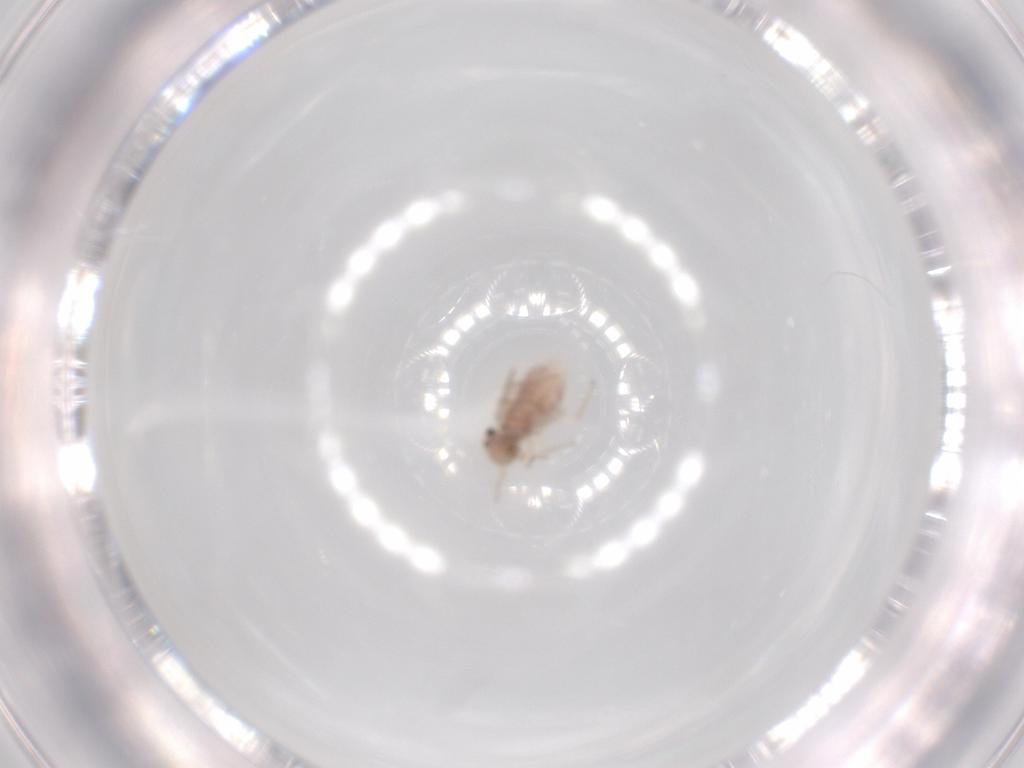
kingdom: Animalia
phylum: Arthropoda
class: Insecta
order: Psocodea
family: Ectopsocidae
